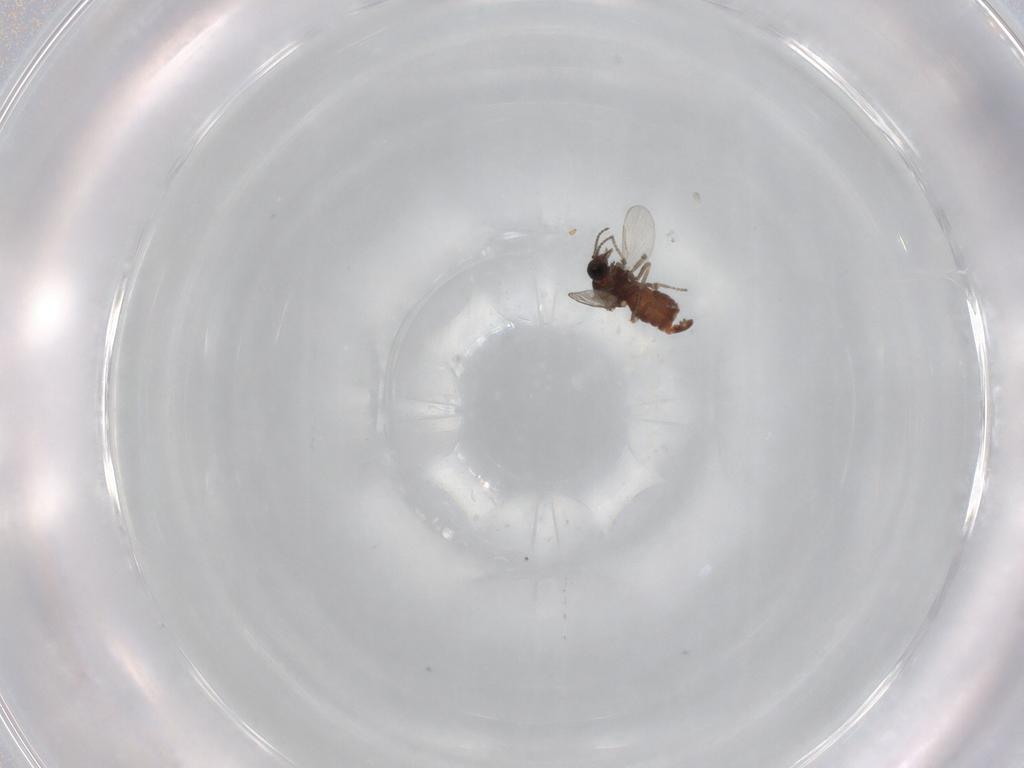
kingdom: Animalia
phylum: Arthropoda
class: Insecta
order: Diptera
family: Ceratopogonidae
